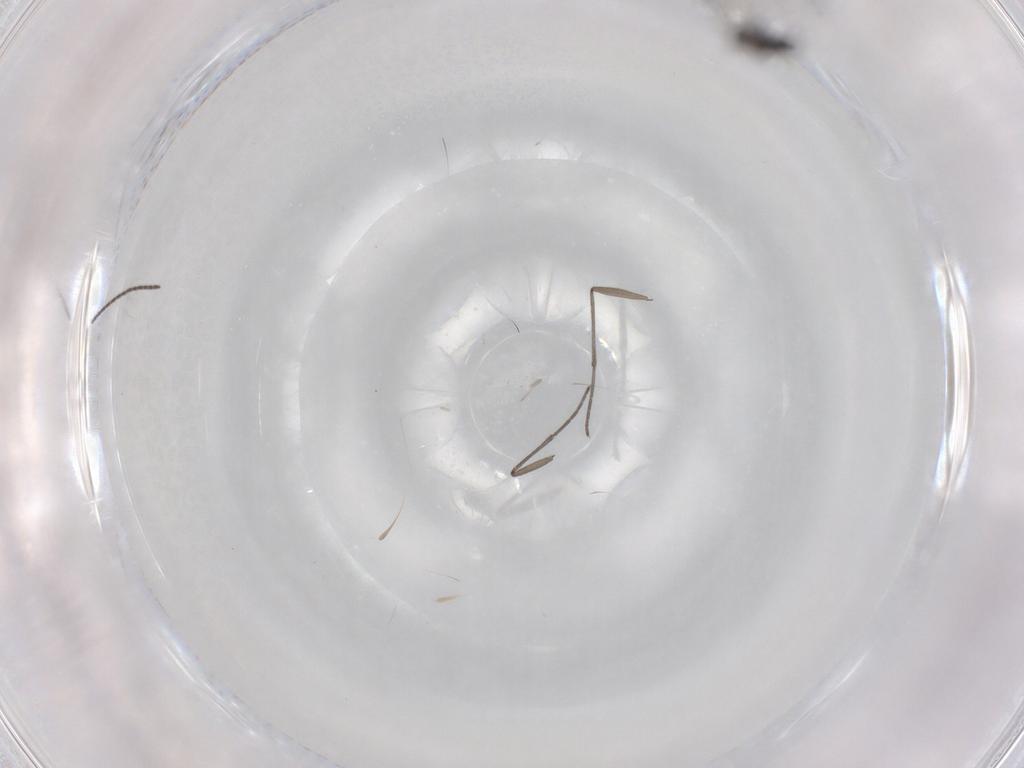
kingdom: Animalia
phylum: Arthropoda
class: Insecta
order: Diptera
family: Sciaridae
